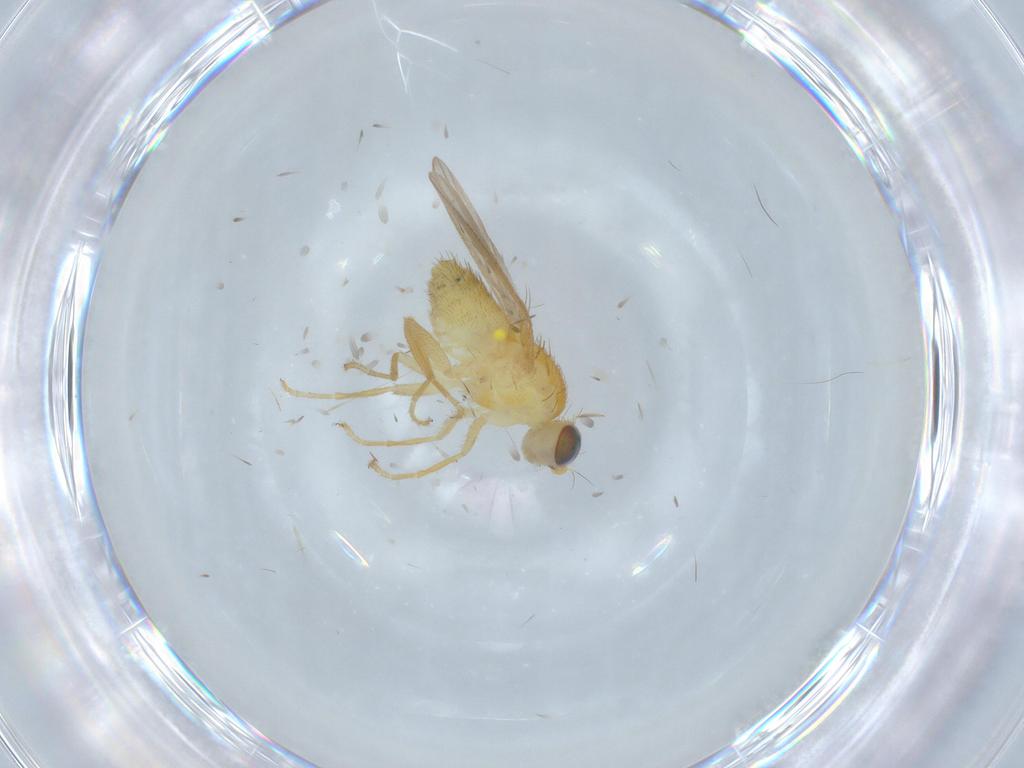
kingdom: Animalia
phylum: Arthropoda
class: Insecta
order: Diptera
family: Chyromyidae
